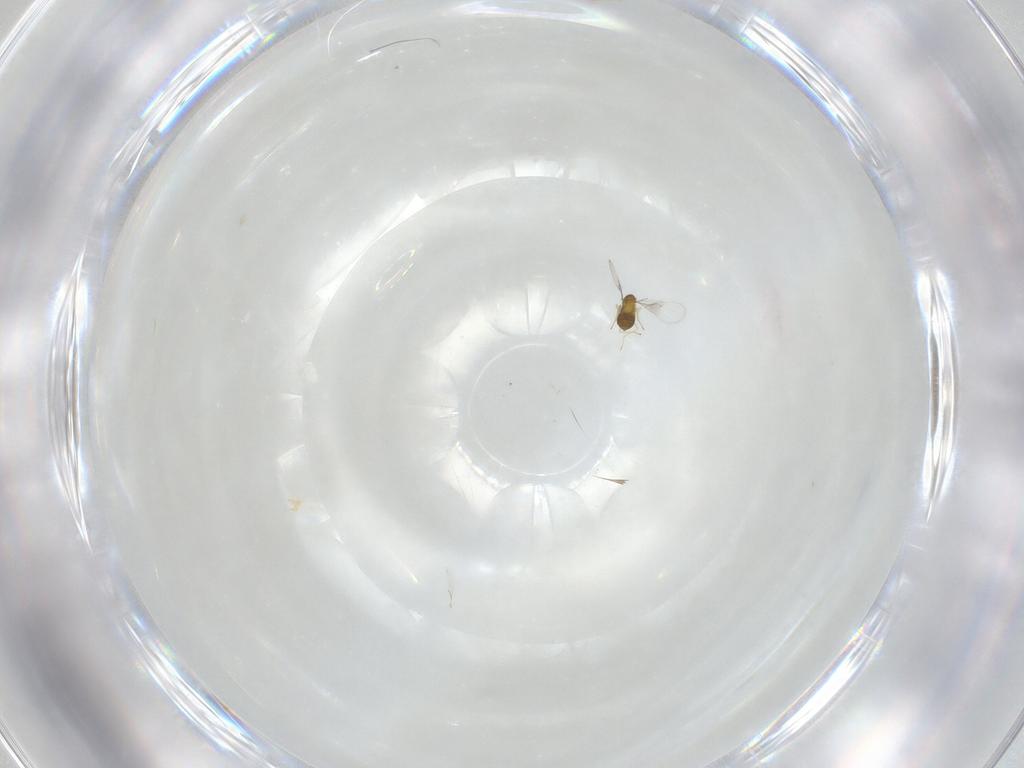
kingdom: Animalia
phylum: Arthropoda
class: Insecta
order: Hymenoptera
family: Trichogrammatidae
